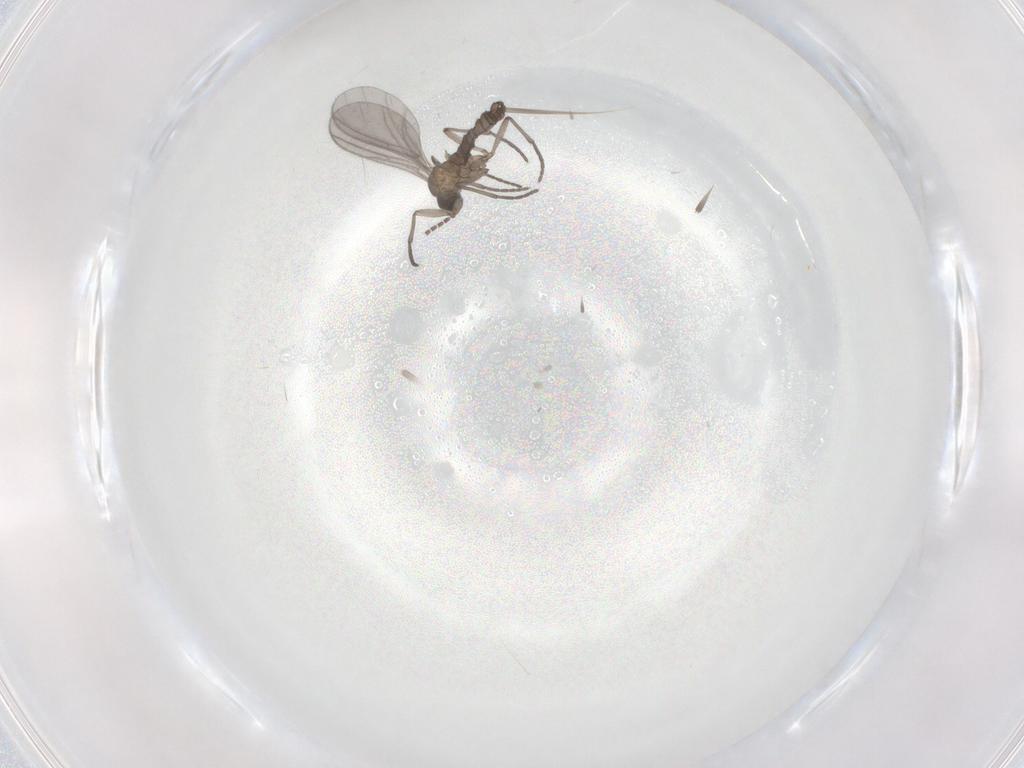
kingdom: Animalia
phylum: Arthropoda
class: Insecta
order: Diptera
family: Sciaridae
